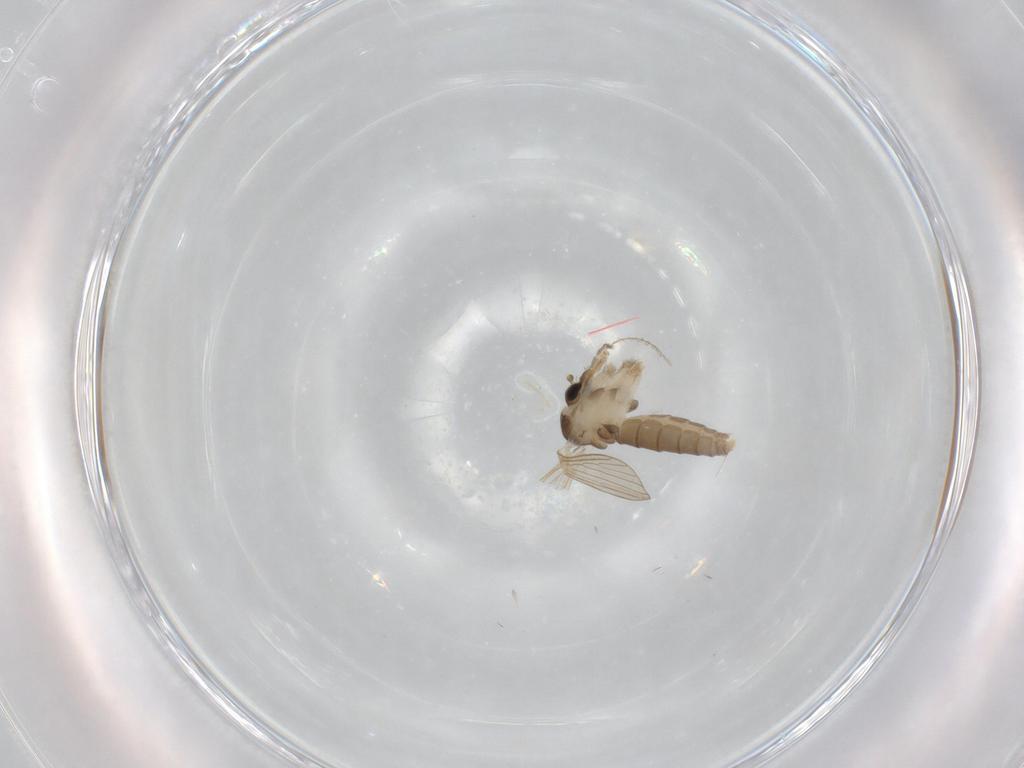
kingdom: Animalia
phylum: Arthropoda
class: Insecta
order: Diptera
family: Psychodidae
